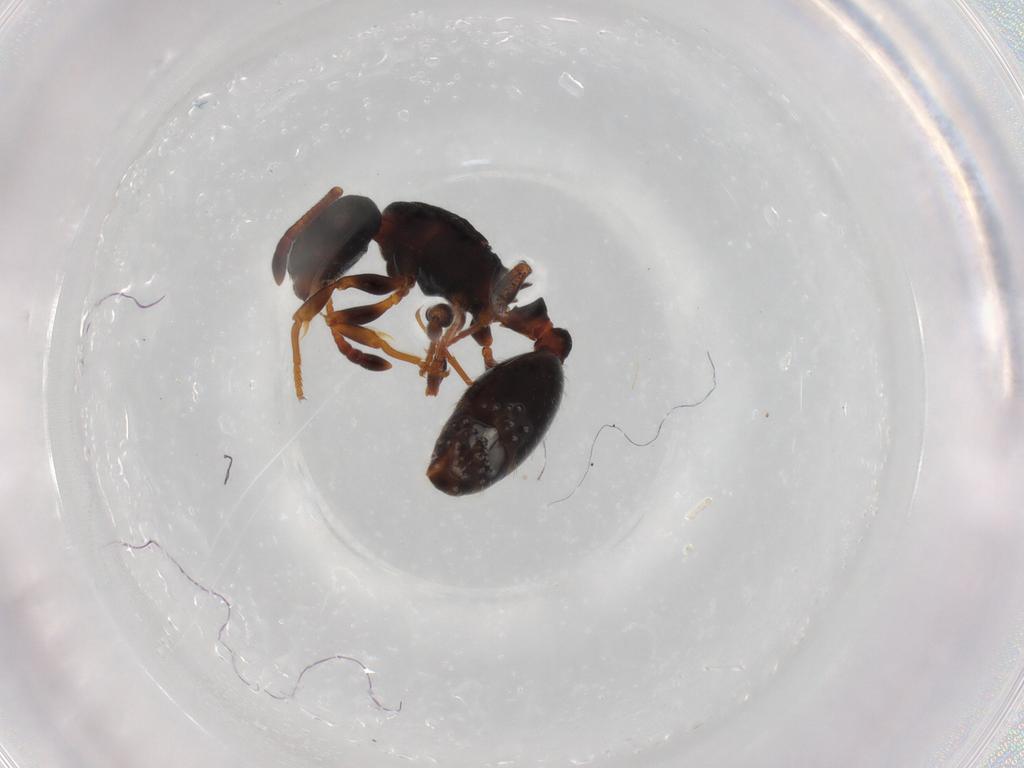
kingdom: Animalia
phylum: Arthropoda
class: Insecta
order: Hymenoptera
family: Formicidae
